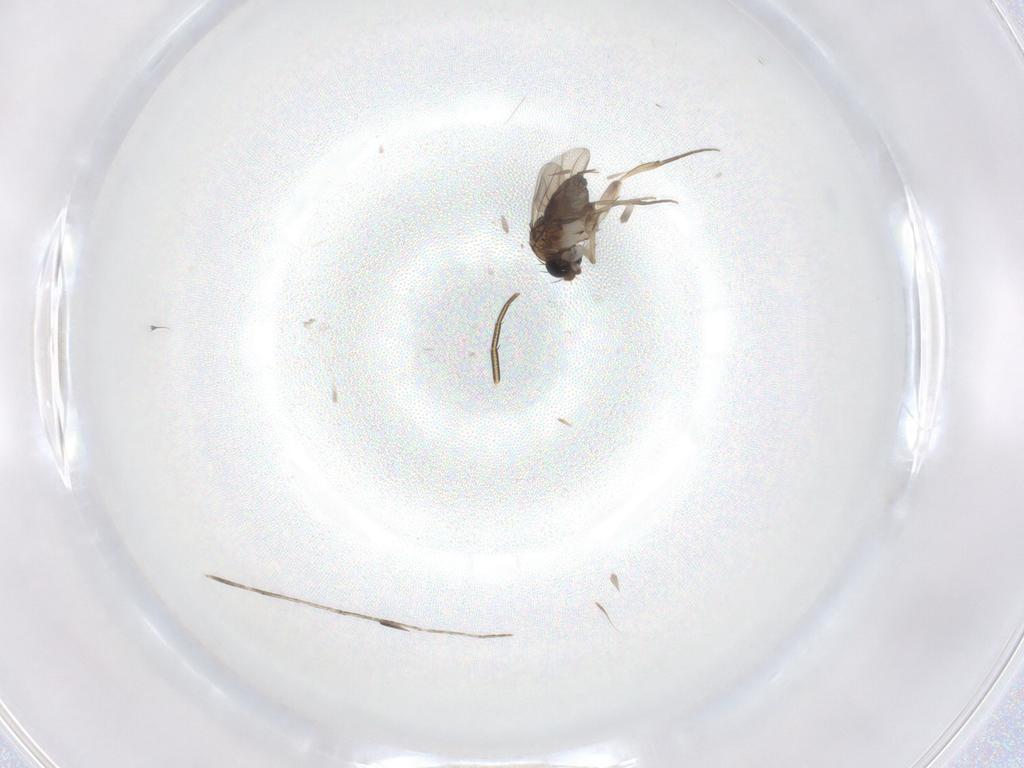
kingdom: Animalia
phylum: Arthropoda
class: Insecta
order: Diptera
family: Phoridae
